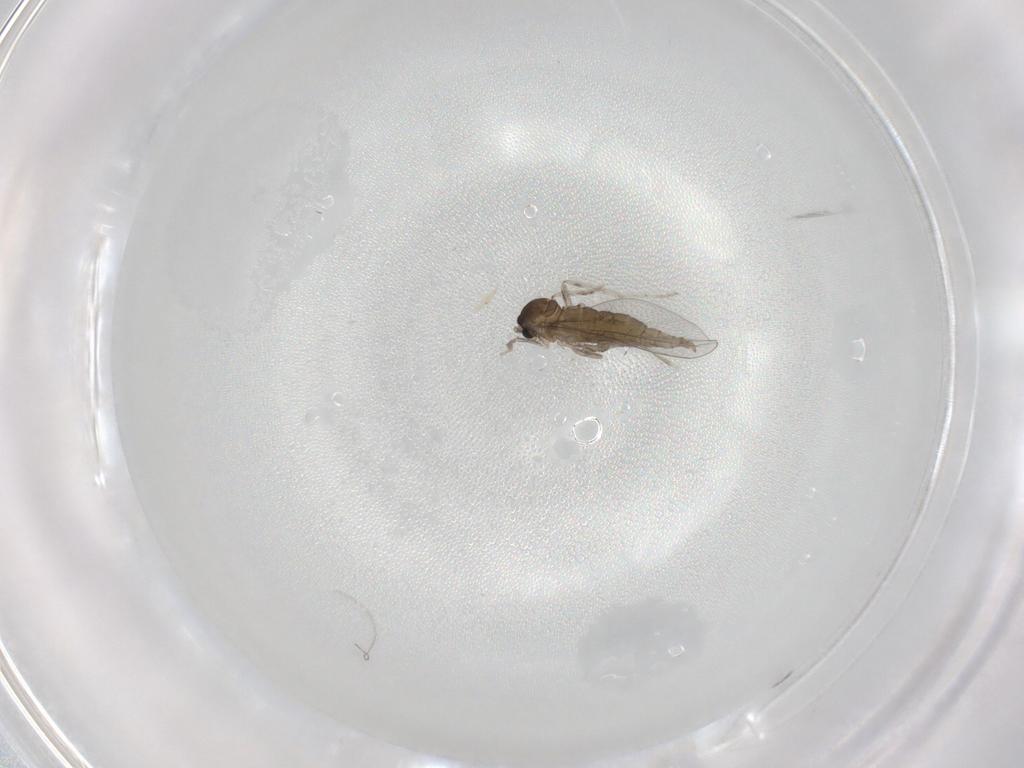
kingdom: Animalia
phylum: Arthropoda
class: Insecta
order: Diptera
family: Cecidomyiidae
